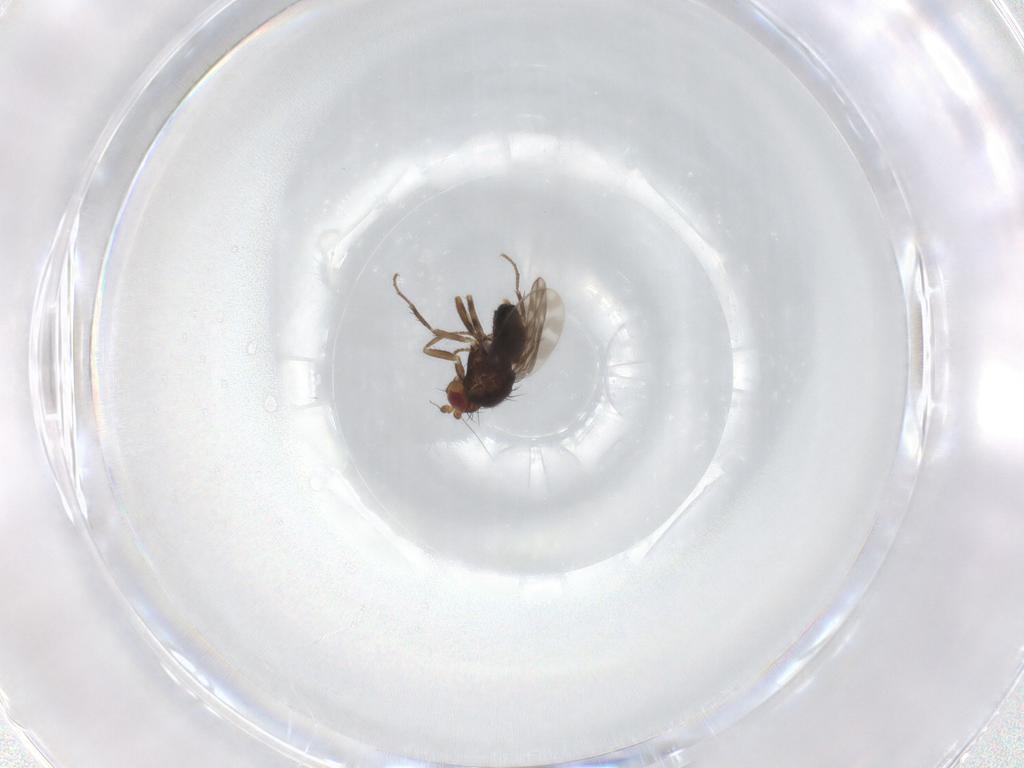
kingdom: Animalia
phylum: Arthropoda
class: Insecta
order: Diptera
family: Sphaeroceridae
